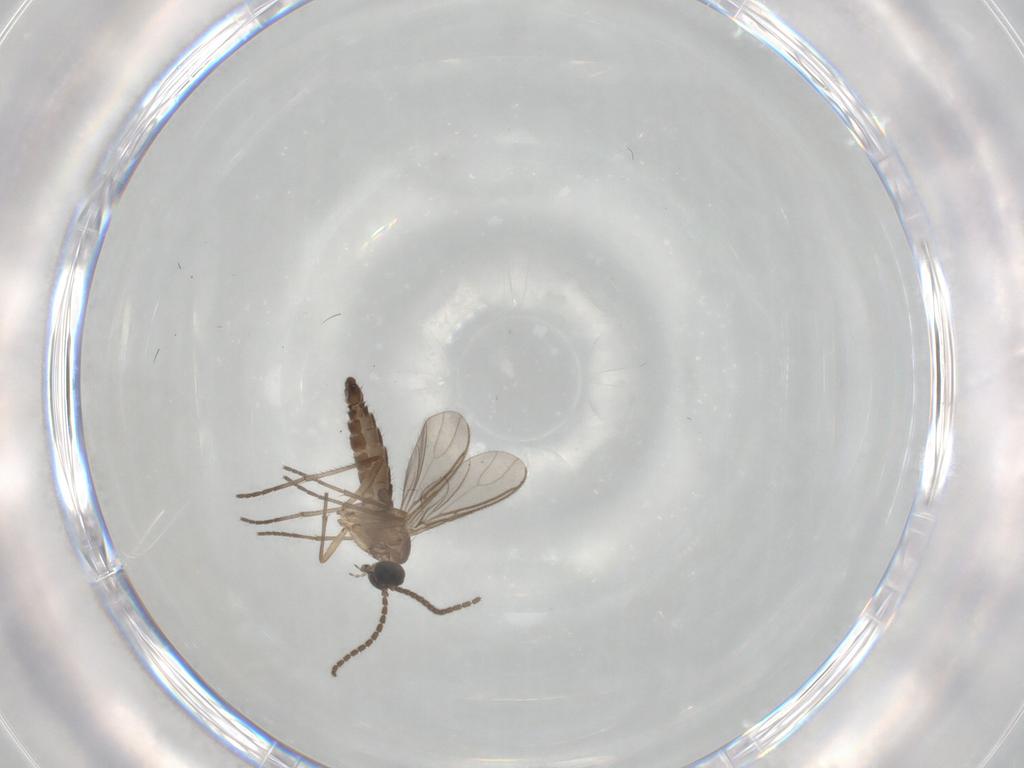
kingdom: Animalia
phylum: Arthropoda
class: Insecta
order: Diptera
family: Sciaridae
